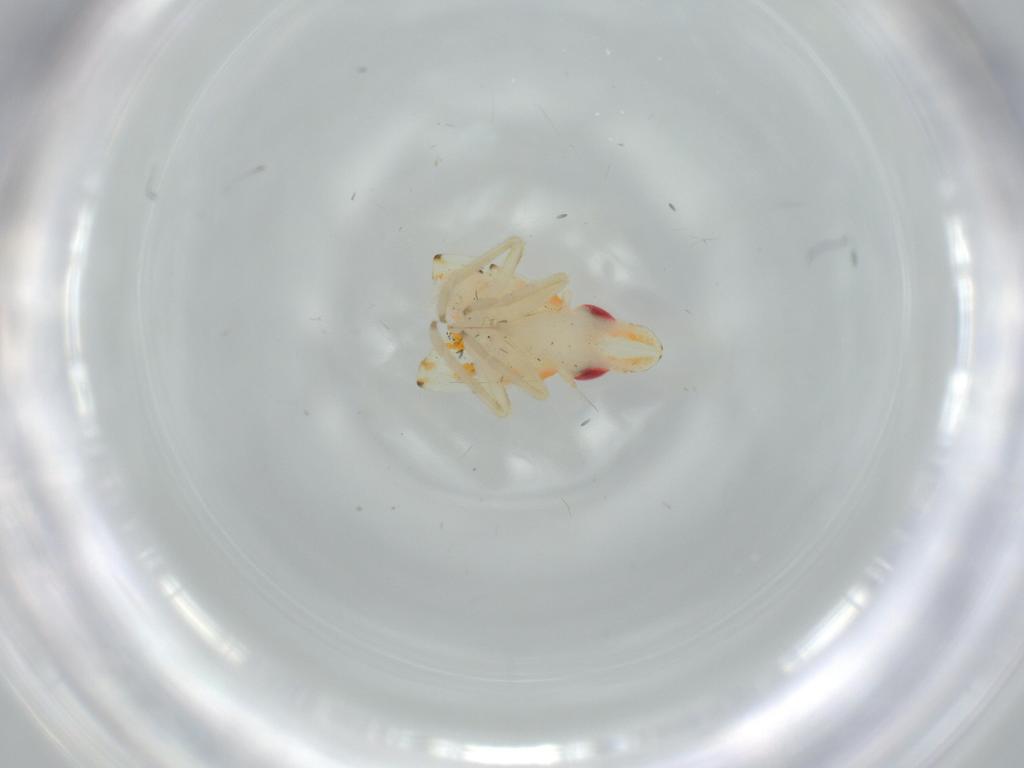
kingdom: Animalia
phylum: Arthropoda
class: Insecta
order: Hemiptera
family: Tropiduchidae
